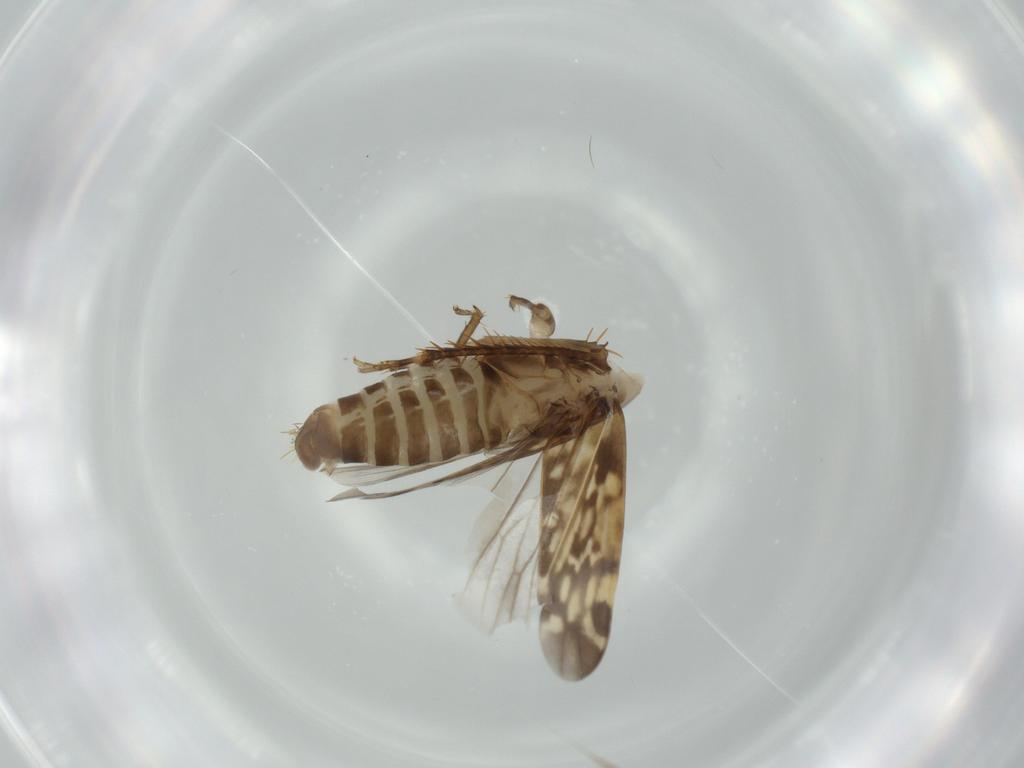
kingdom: Animalia
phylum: Arthropoda
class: Insecta
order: Hemiptera
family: Cicadellidae
